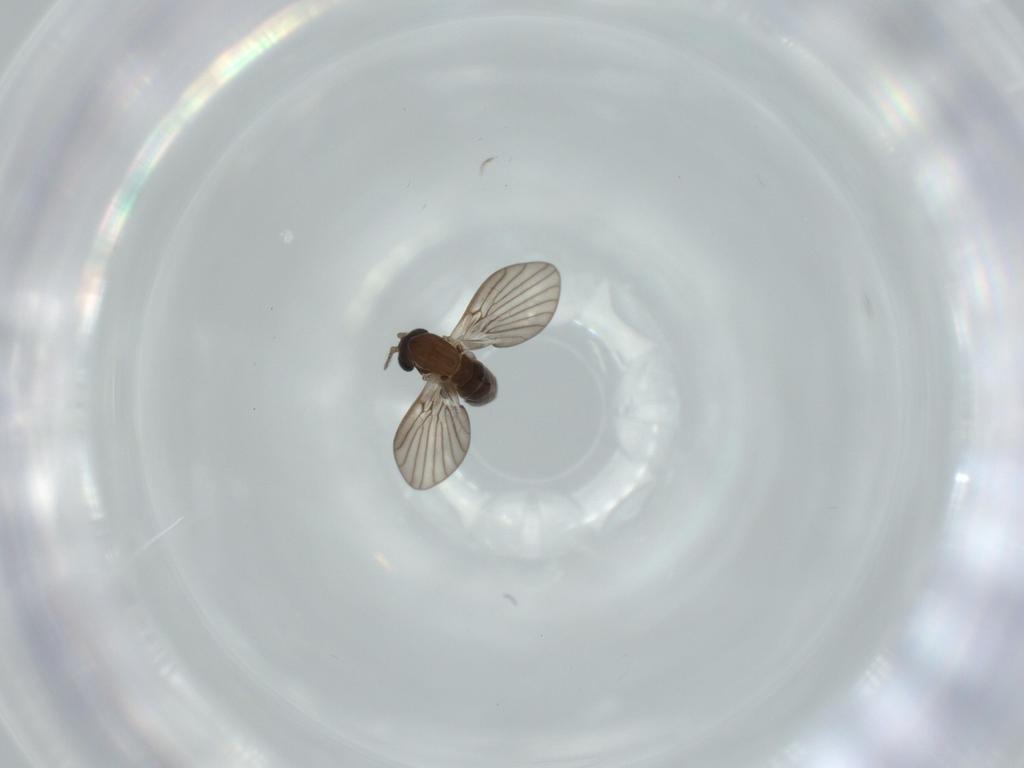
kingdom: Animalia
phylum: Arthropoda
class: Insecta
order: Diptera
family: Psychodidae
